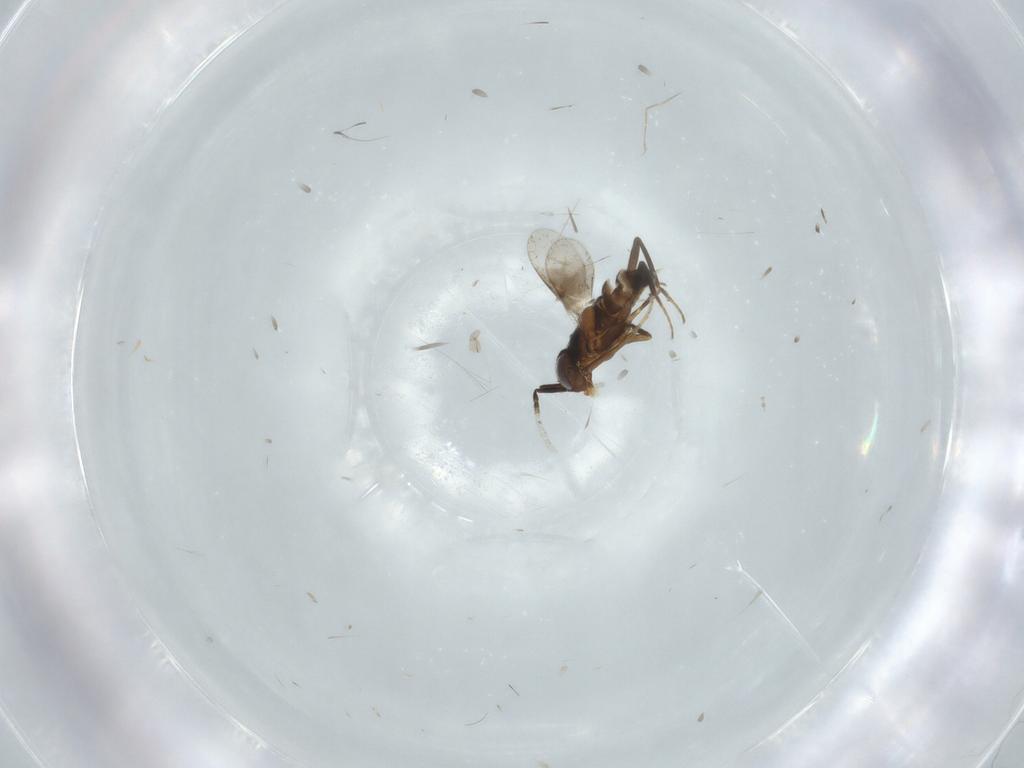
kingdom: Animalia
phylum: Arthropoda
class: Insecta
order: Hymenoptera
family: Encyrtidae
